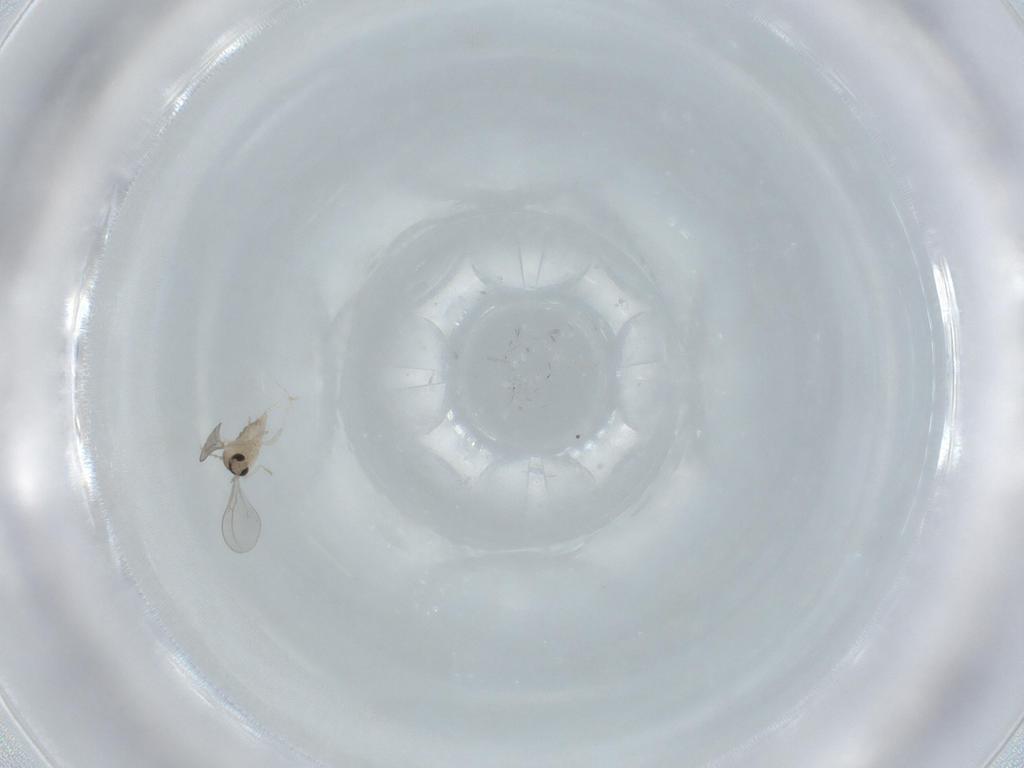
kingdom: Animalia
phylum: Arthropoda
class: Insecta
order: Diptera
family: Cecidomyiidae
